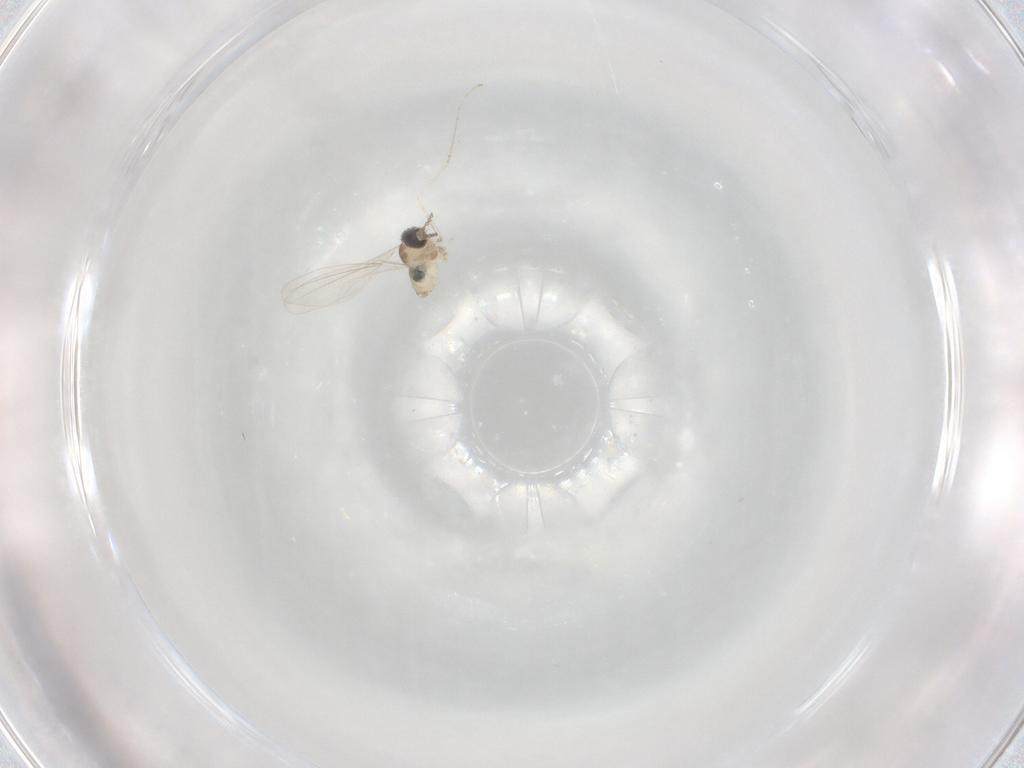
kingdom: Animalia
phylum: Arthropoda
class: Insecta
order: Diptera
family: Cecidomyiidae
